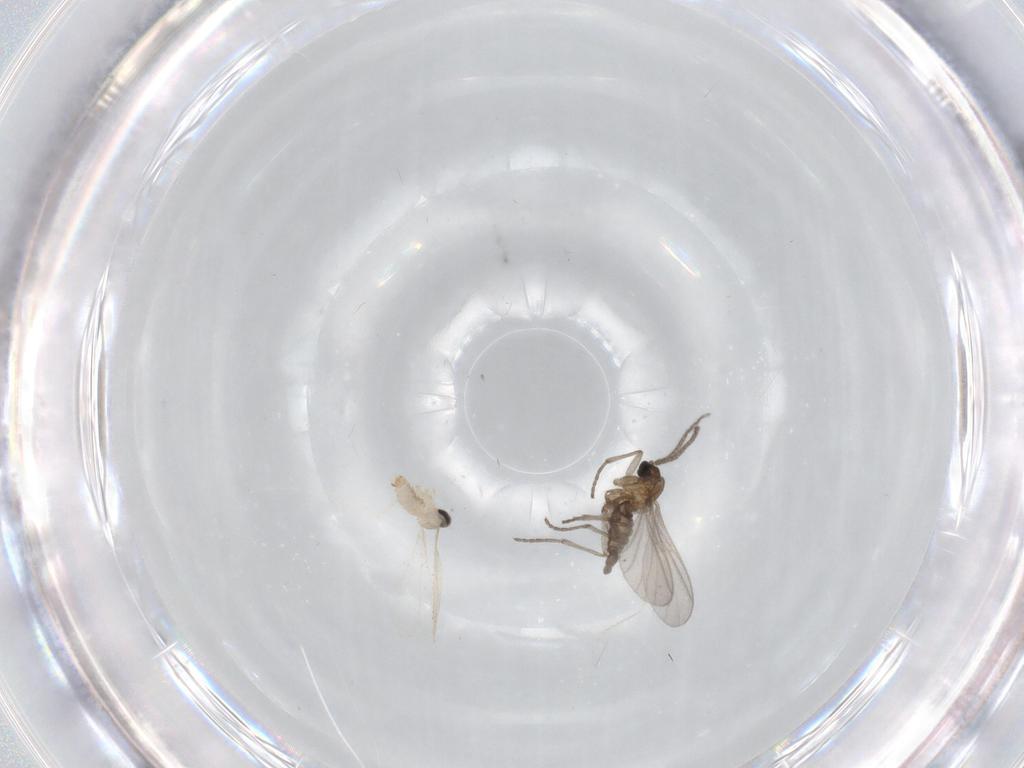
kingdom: Animalia
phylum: Arthropoda
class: Insecta
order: Diptera
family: Sciaridae
